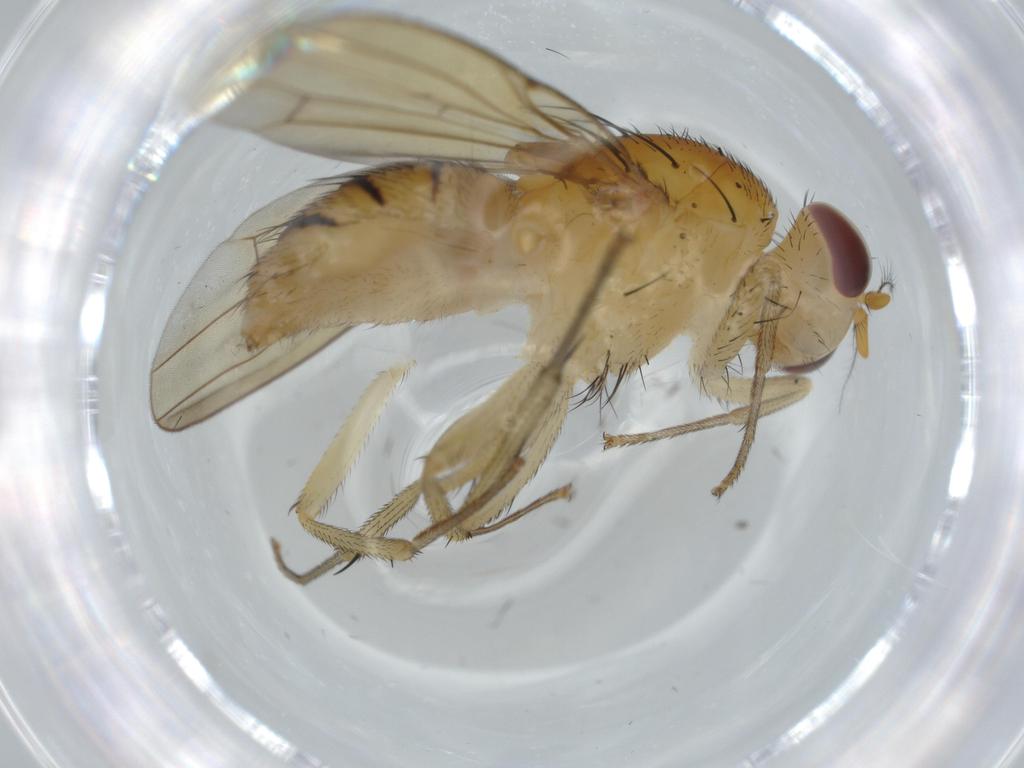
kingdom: Animalia
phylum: Arthropoda
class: Insecta
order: Diptera
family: Lauxaniidae
